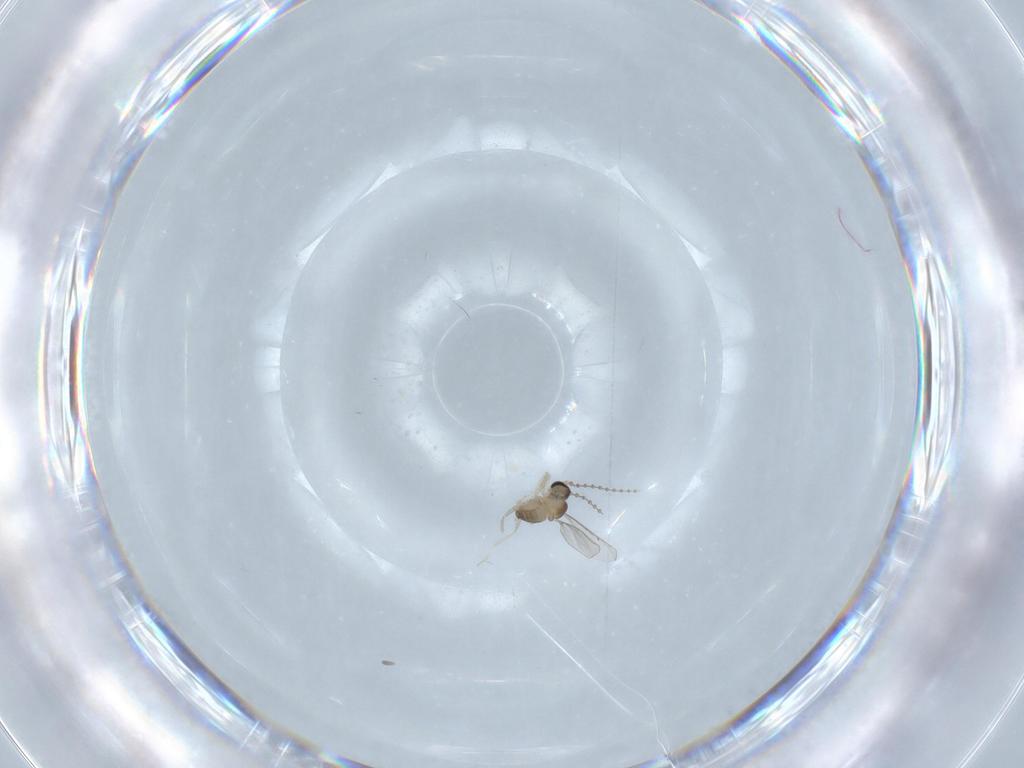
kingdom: Animalia
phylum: Arthropoda
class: Insecta
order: Diptera
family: Cecidomyiidae
